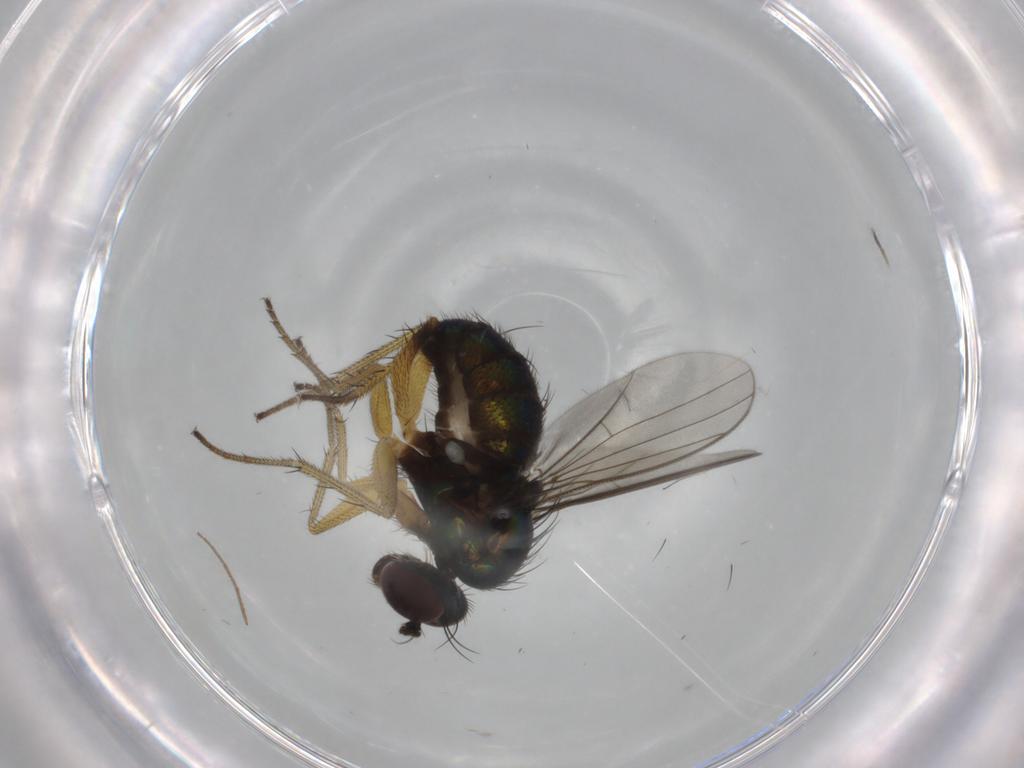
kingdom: Animalia
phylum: Arthropoda
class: Insecta
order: Diptera
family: Dolichopodidae
